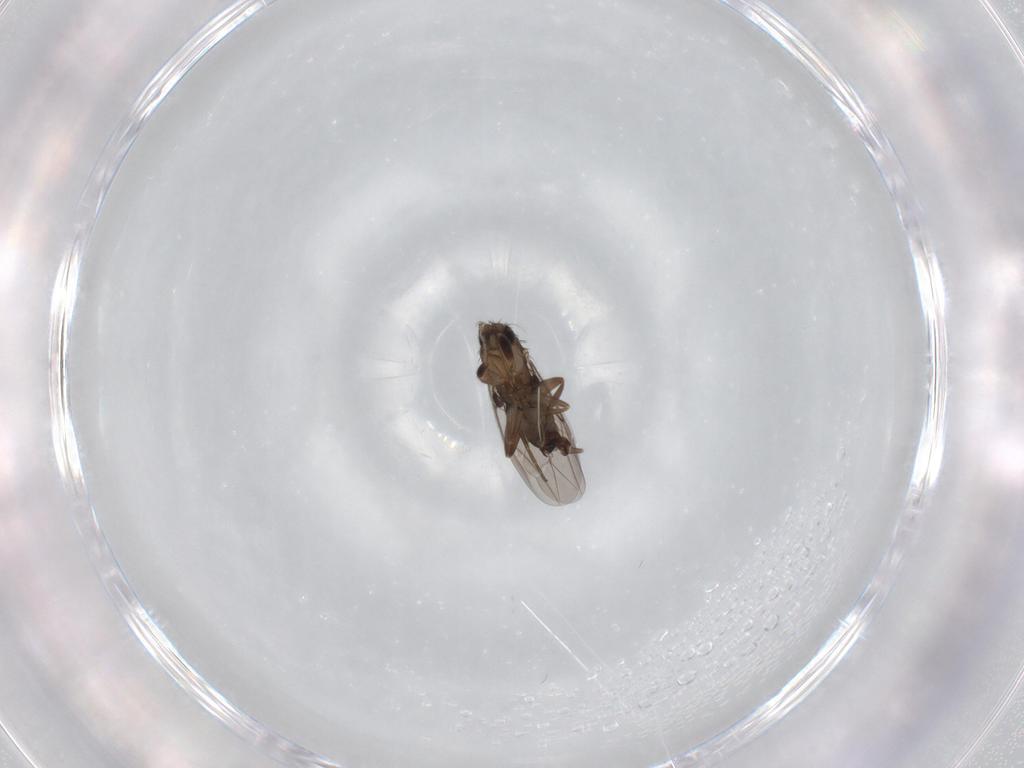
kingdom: Animalia
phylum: Arthropoda
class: Insecta
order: Diptera
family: Phoridae
